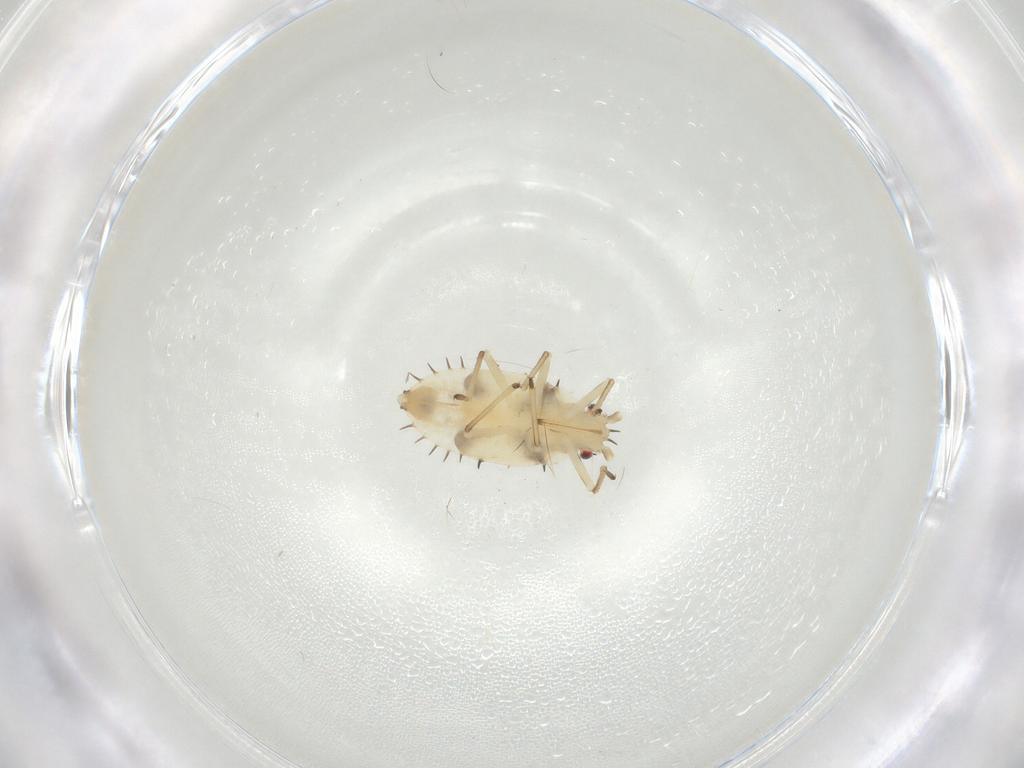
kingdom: Animalia
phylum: Arthropoda
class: Insecta
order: Hemiptera
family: Tingidae
